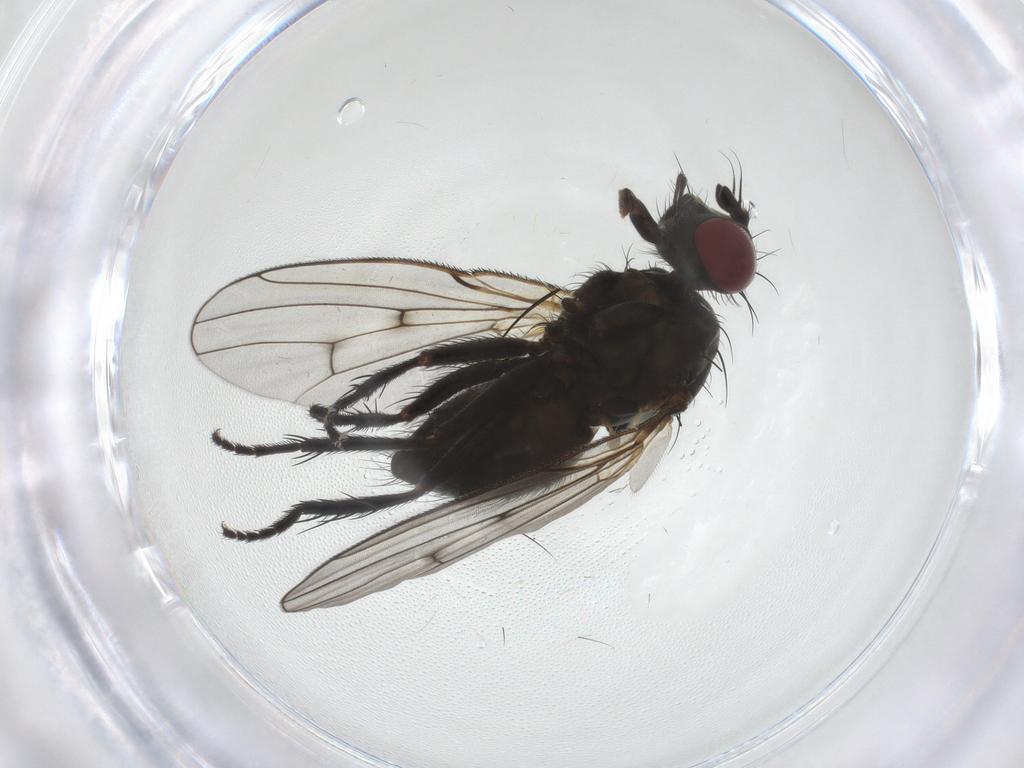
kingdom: Animalia
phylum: Arthropoda
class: Insecta
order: Diptera
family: Muscidae
